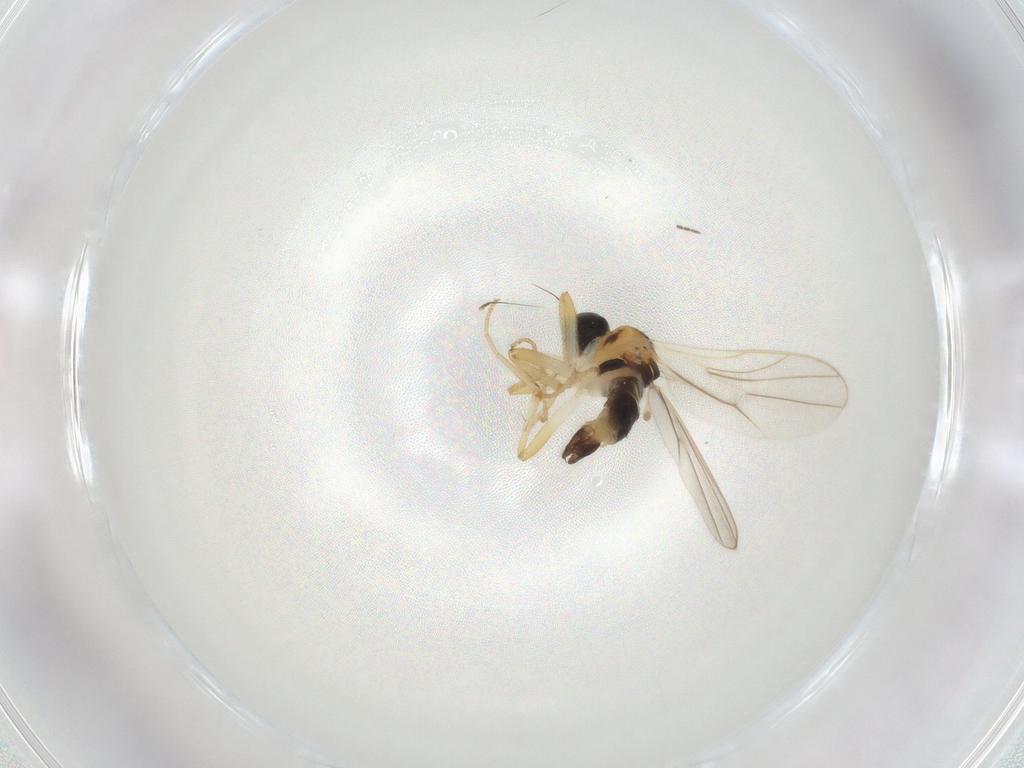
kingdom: Animalia
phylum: Arthropoda
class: Insecta
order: Diptera
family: Hybotidae
